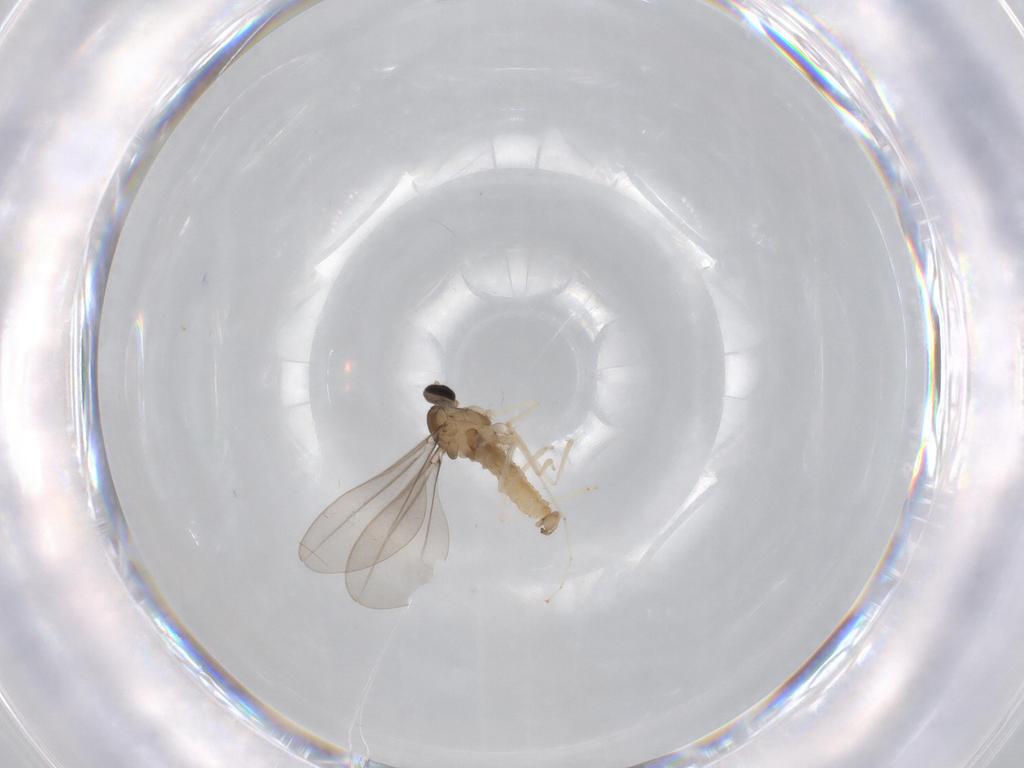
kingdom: Animalia
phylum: Arthropoda
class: Insecta
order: Diptera
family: Cecidomyiidae
